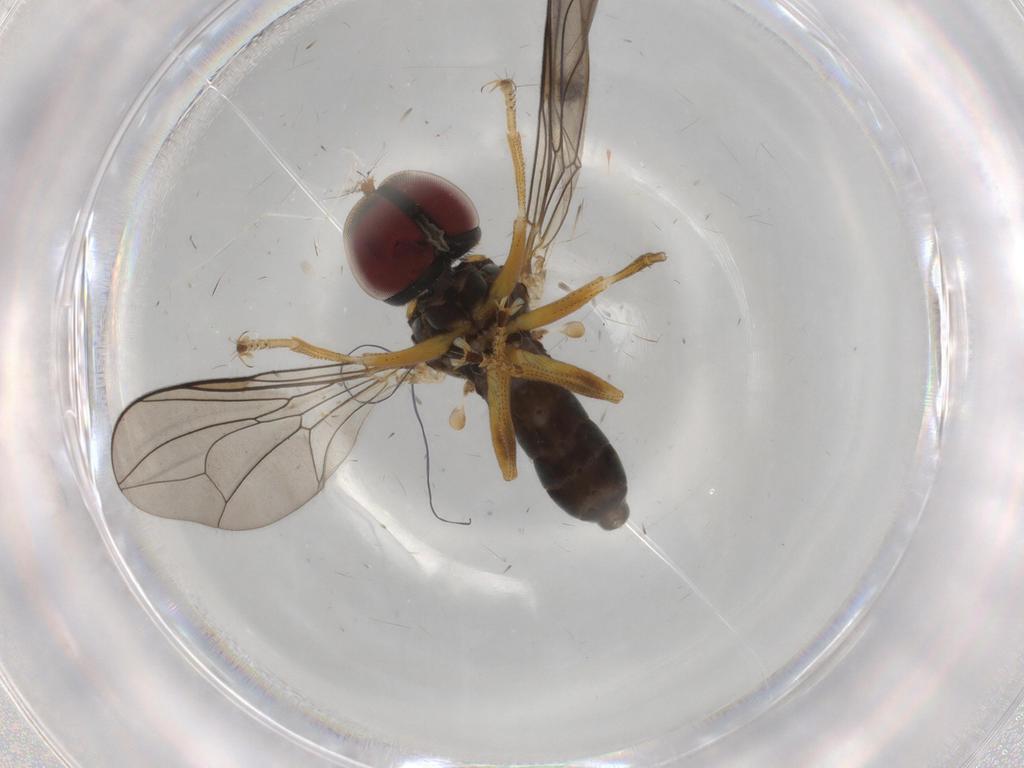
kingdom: Animalia
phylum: Arthropoda
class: Insecta
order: Diptera
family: Pipunculidae
